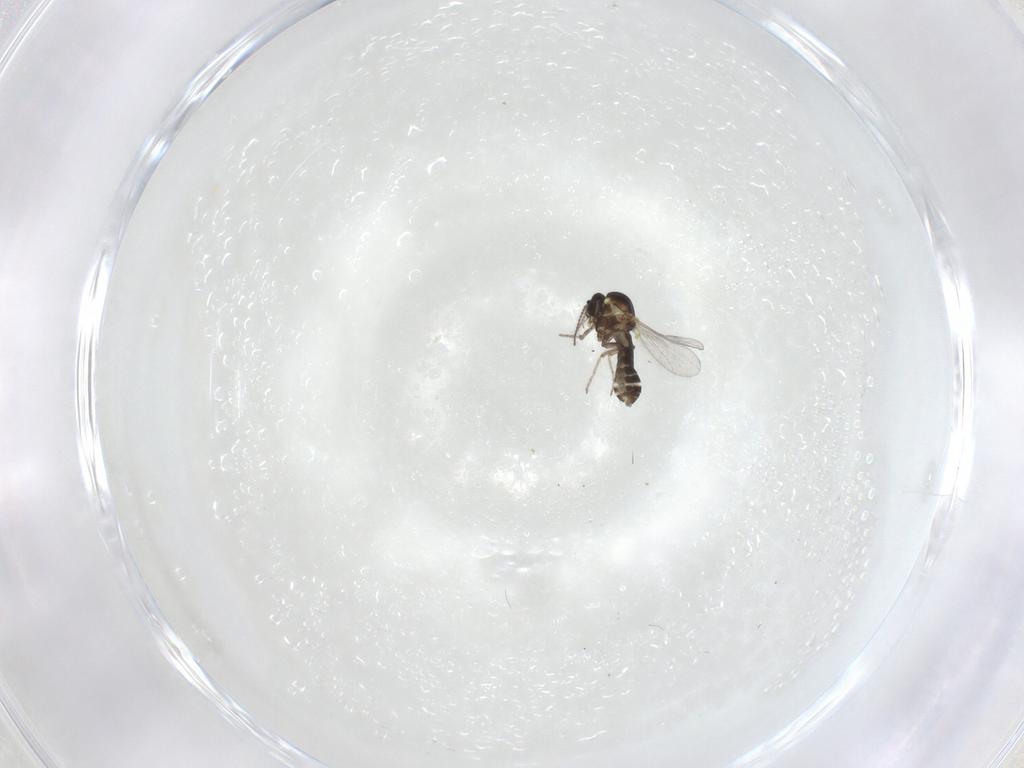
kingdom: Animalia
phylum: Arthropoda
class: Insecta
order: Diptera
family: Ceratopogonidae
